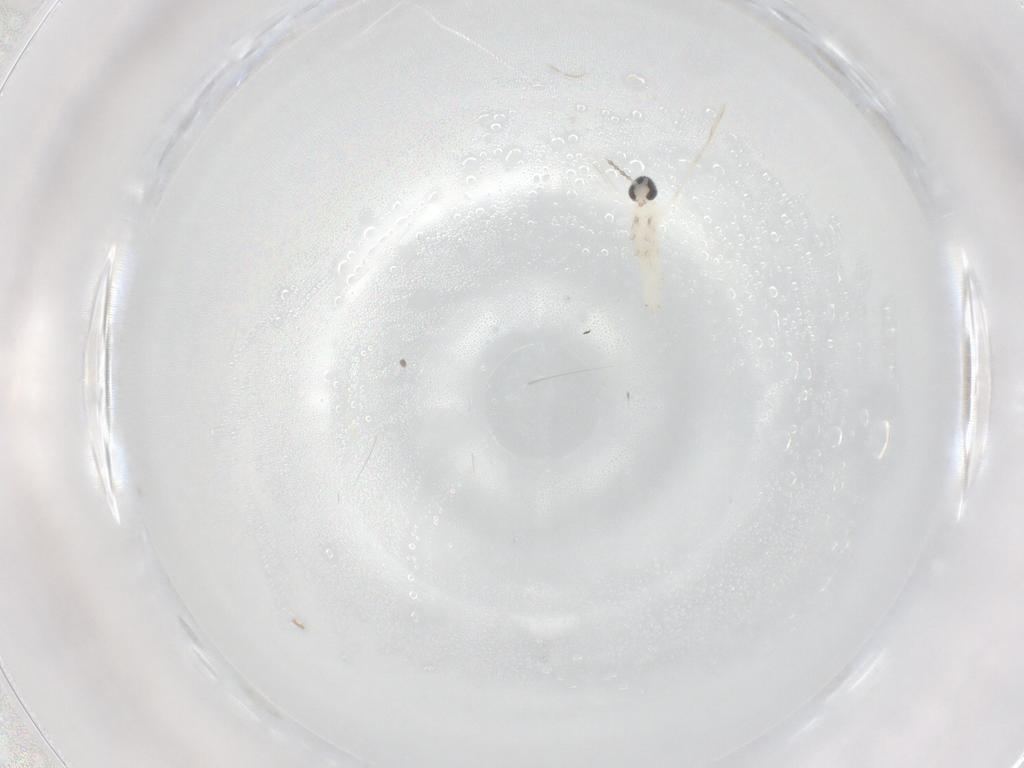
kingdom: Animalia
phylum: Arthropoda
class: Insecta
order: Diptera
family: Limoniidae
